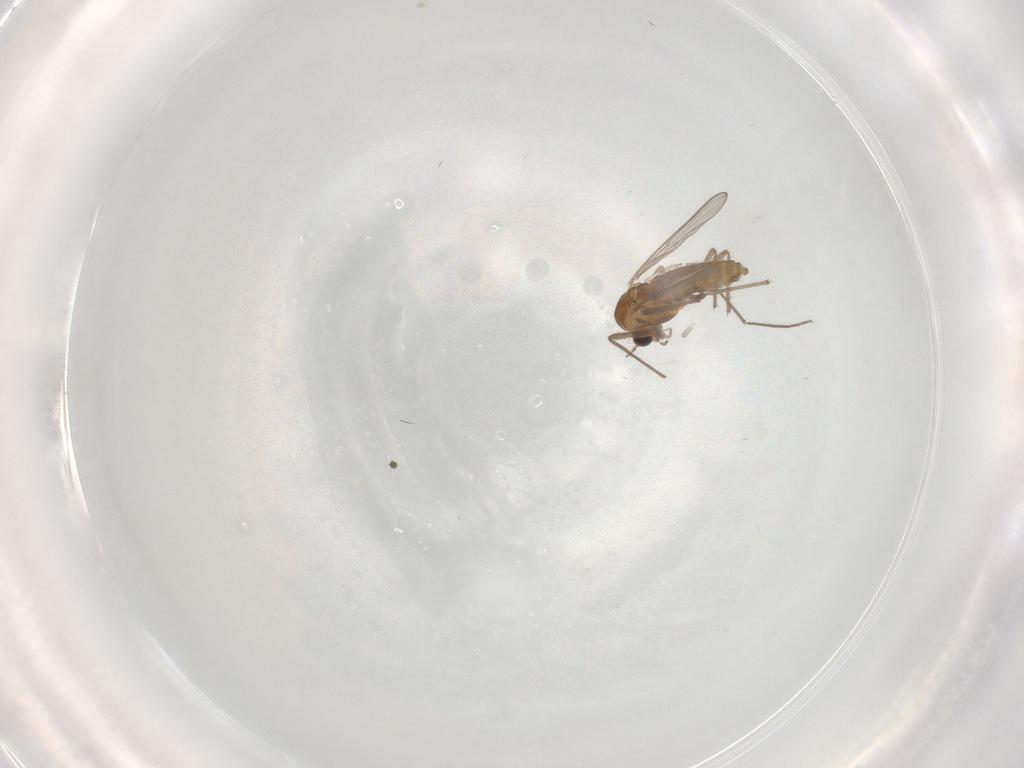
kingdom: Animalia
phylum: Arthropoda
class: Insecta
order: Diptera
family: Chironomidae
